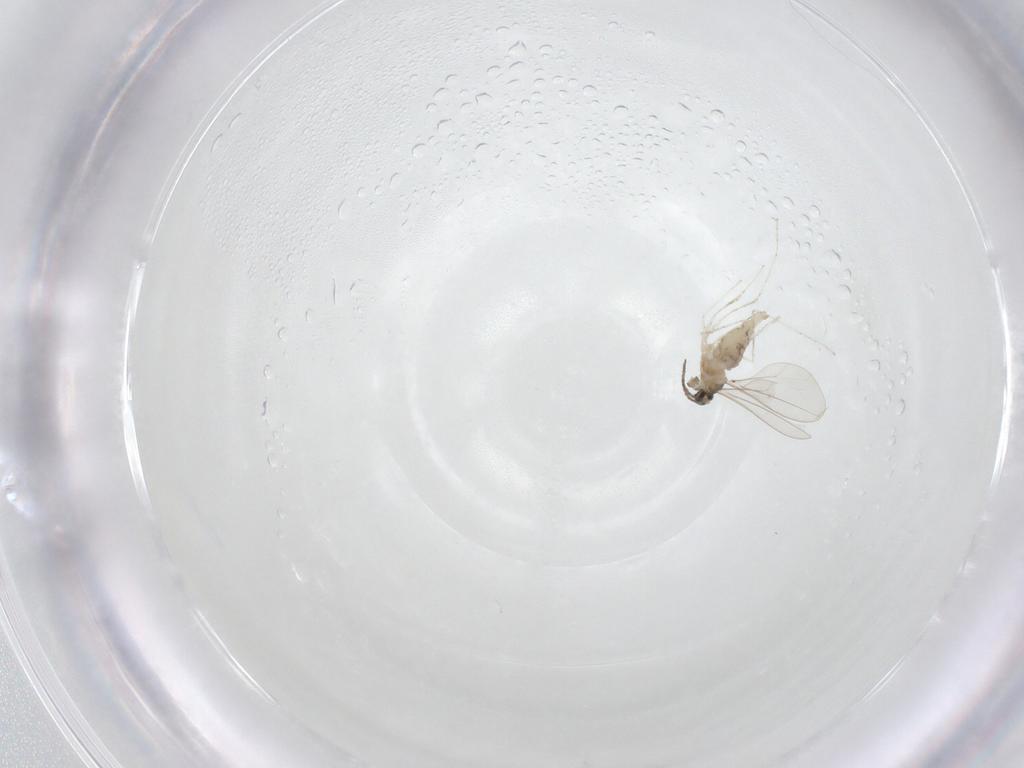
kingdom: Animalia
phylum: Arthropoda
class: Insecta
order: Diptera
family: Cecidomyiidae
